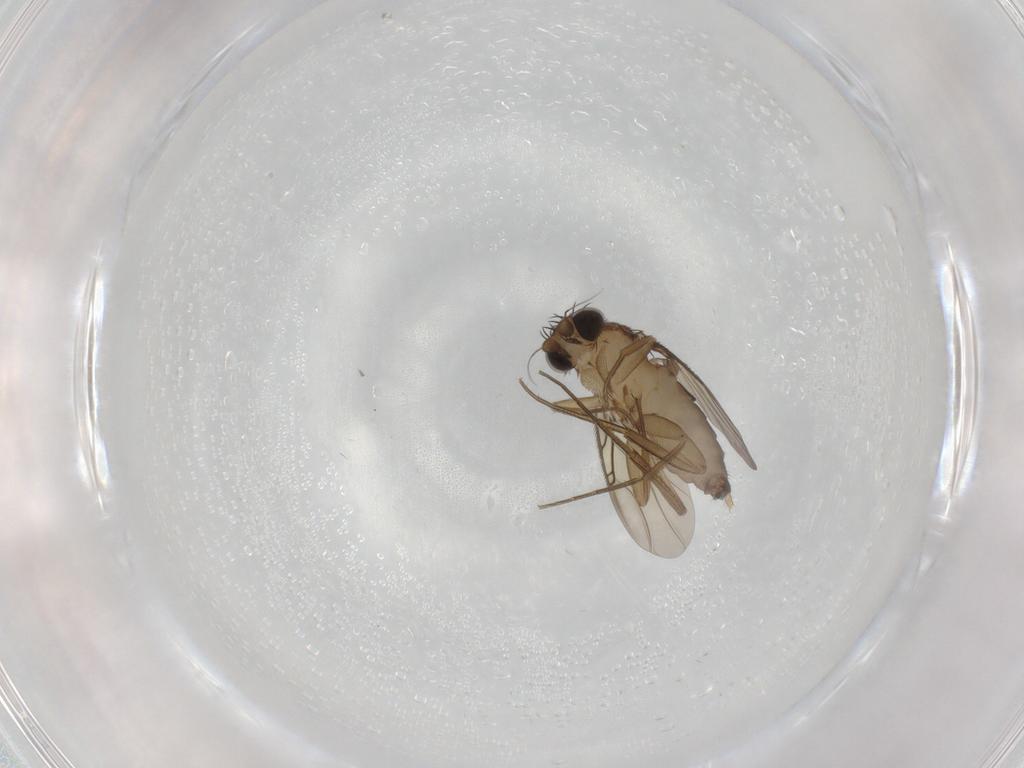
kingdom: Animalia
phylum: Arthropoda
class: Insecta
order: Diptera
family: Phoridae
